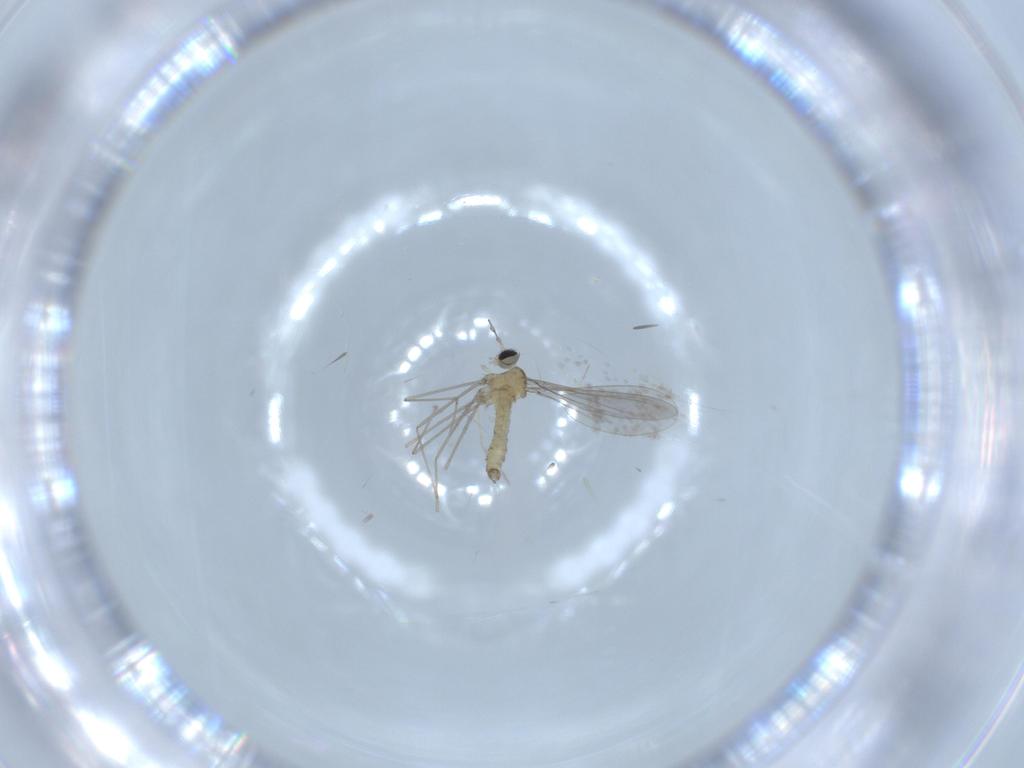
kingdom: Animalia
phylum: Arthropoda
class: Insecta
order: Diptera
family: Cecidomyiidae
